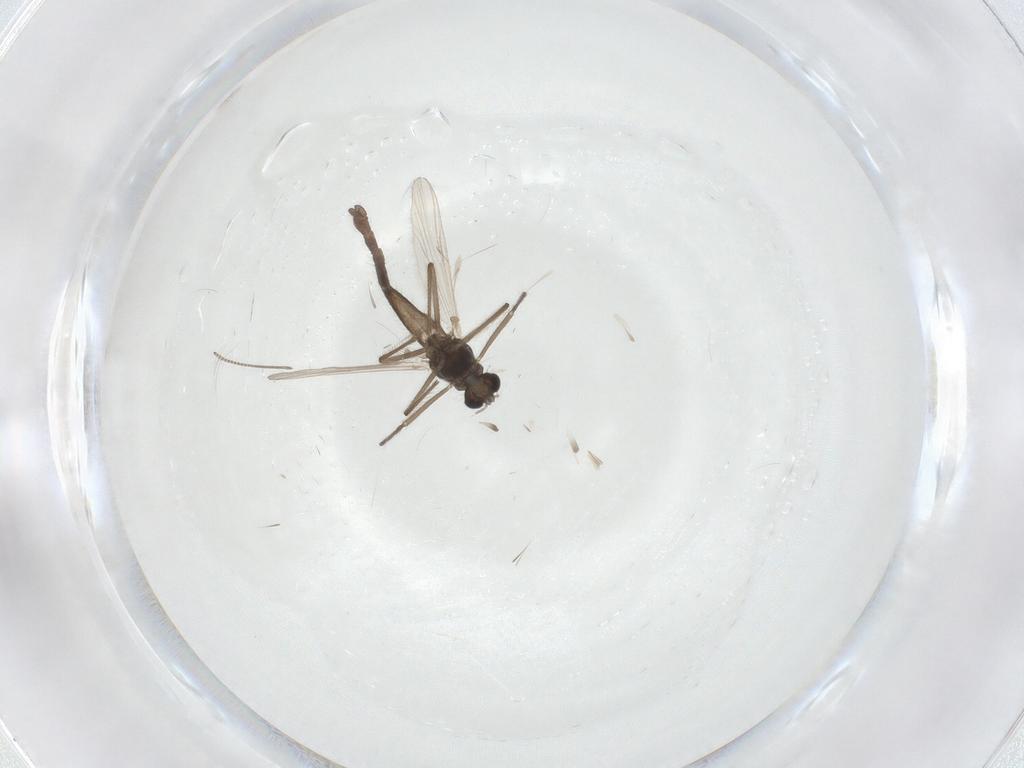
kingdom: Animalia
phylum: Arthropoda
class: Insecta
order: Diptera
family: Chironomidae
